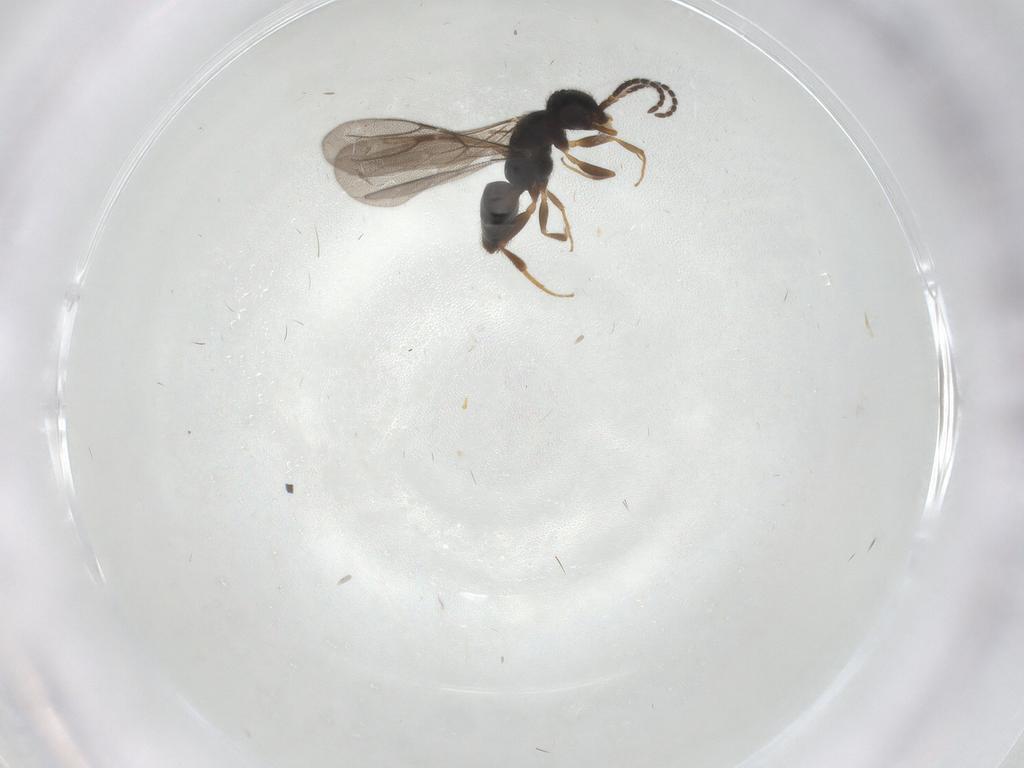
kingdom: Animalia
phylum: Arthropoda
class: Insecta
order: Hymenoptera
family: Bethylidae
